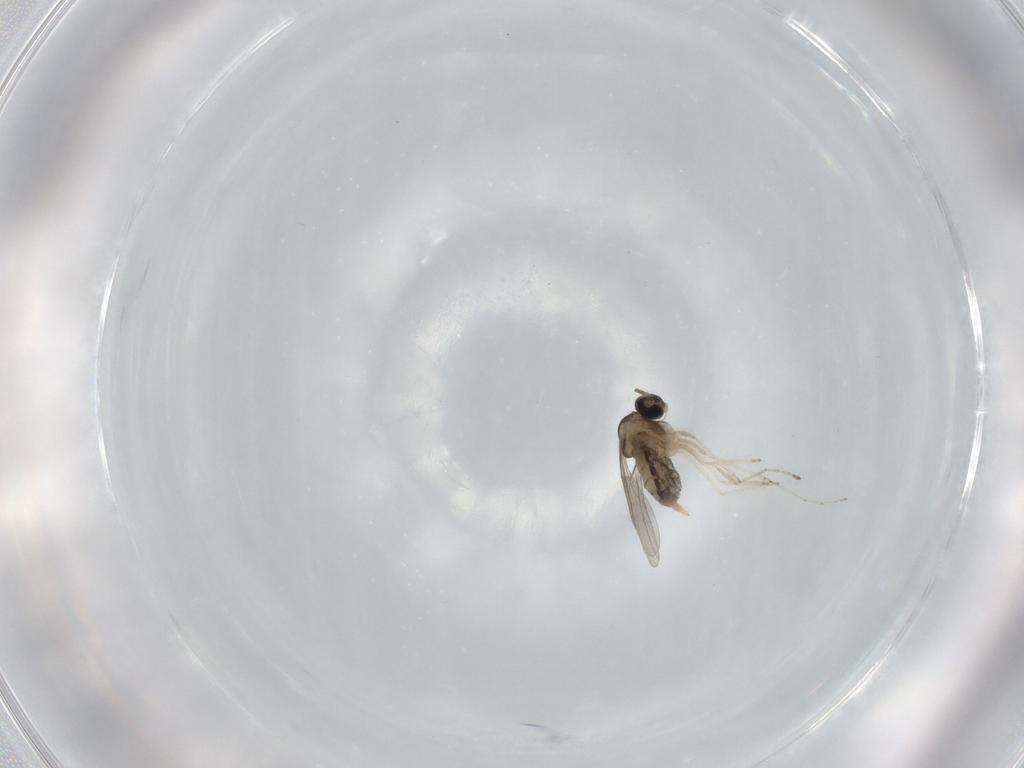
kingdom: Animalia
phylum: Arthropoda
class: Insecta
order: Diptera
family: Cecidomyiidae
